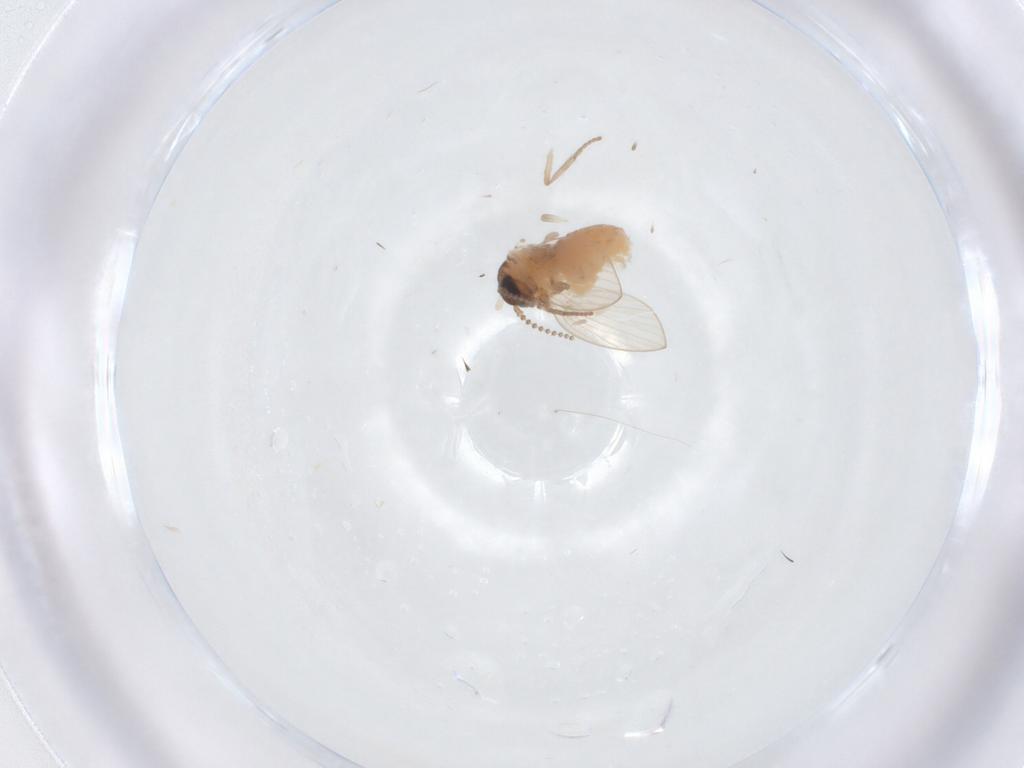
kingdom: Animalia
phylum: Arthropoda
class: Insecta
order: Diptera
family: Psychodidae
